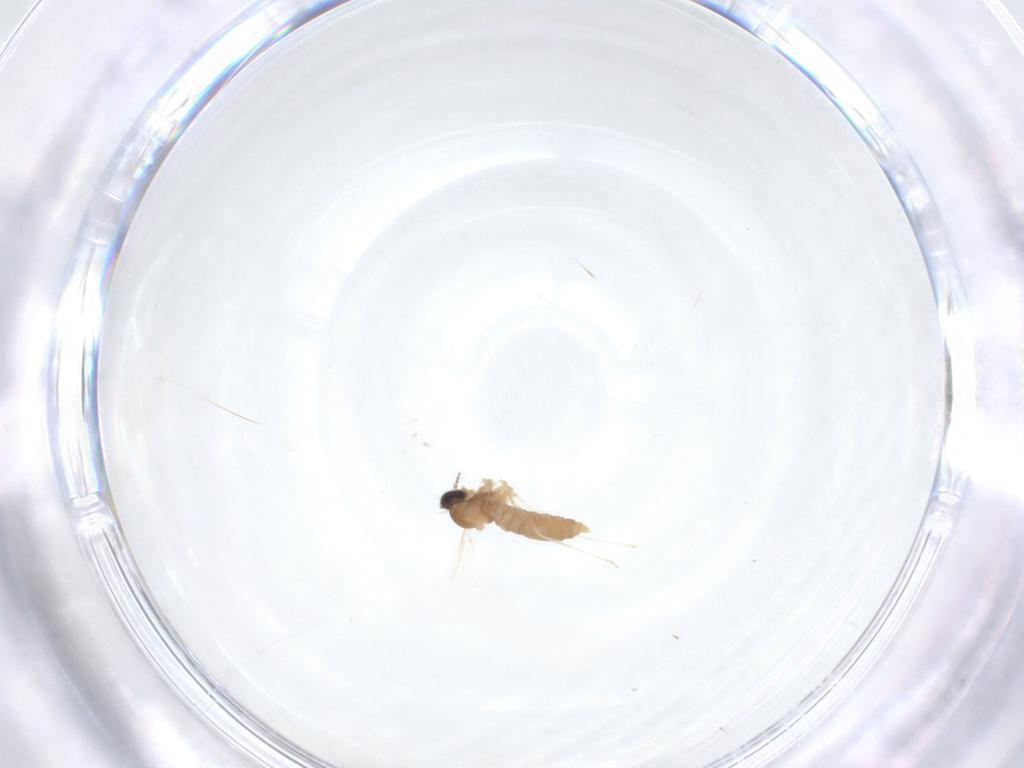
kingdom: Animalia
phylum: Arthropoda
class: Insecta
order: Diptera
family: Cecidomyiidae
